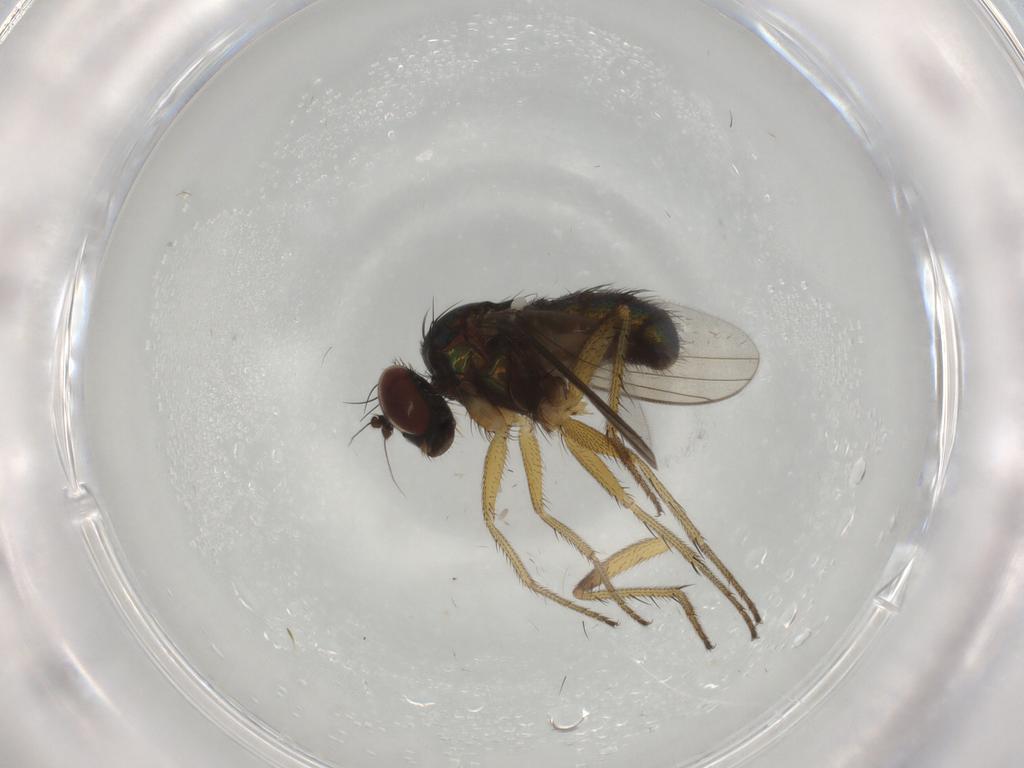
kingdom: Animalia
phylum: Arthropoda
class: Insecta
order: Diptera
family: Dolichopodidae
